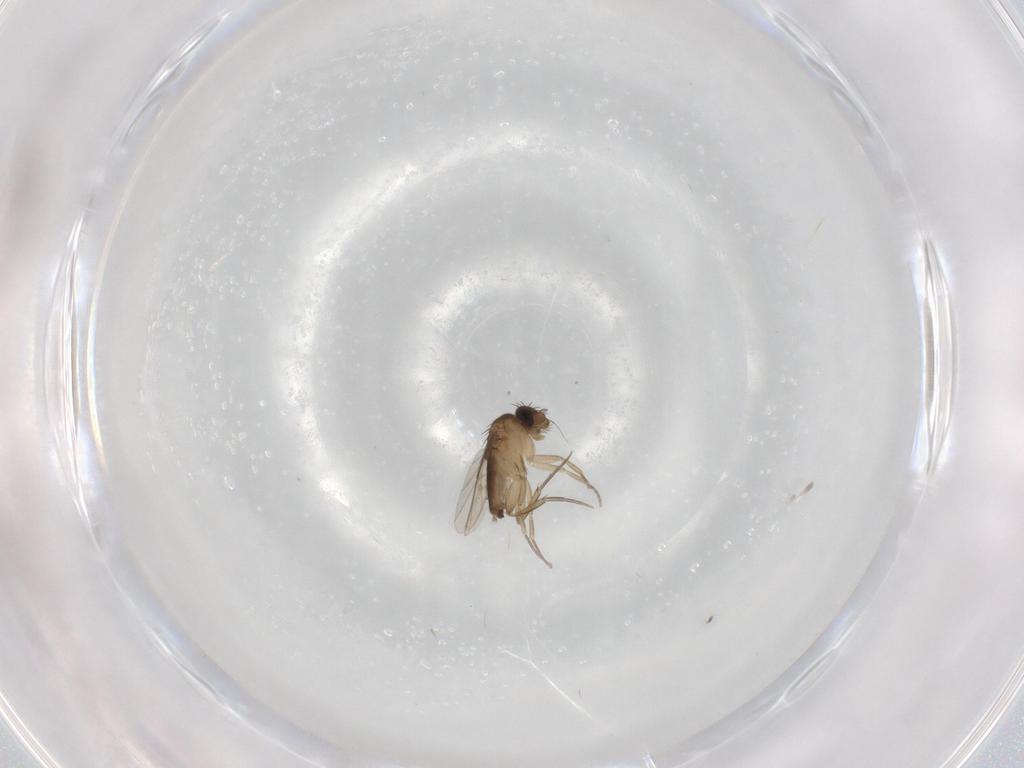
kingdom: Animalia
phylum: Arthropoda
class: Insecta
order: Diptera
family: Phoridae
